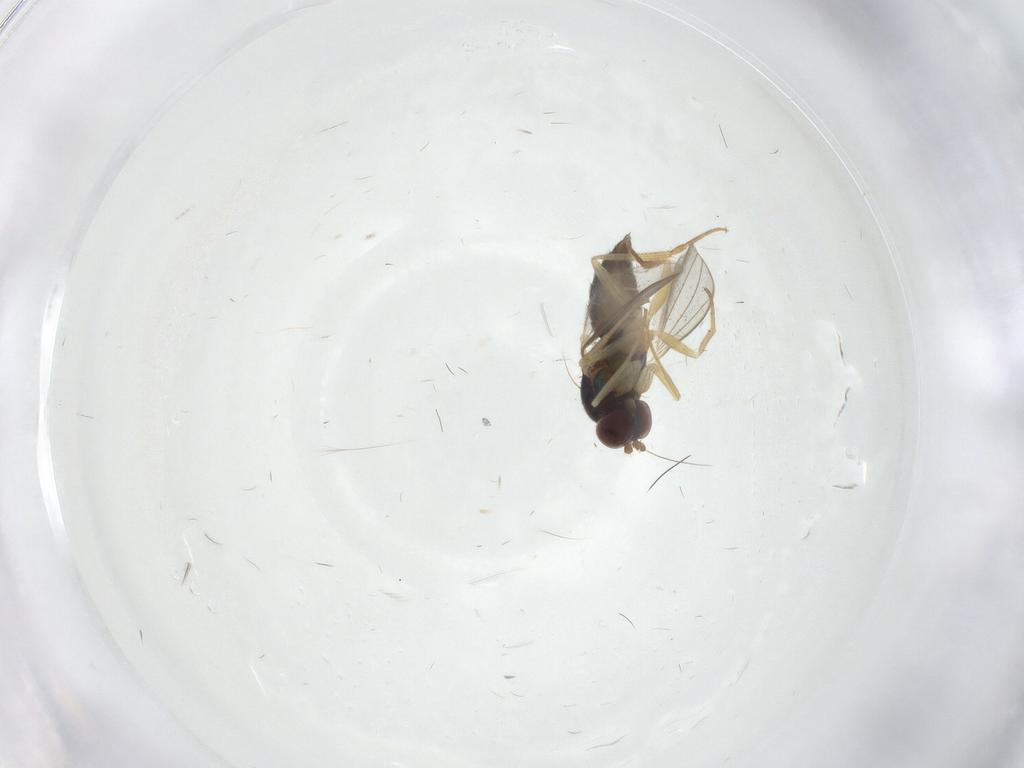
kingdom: Animalia
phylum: Arthropoda
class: Insecta
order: Diptera
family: Dolichopodidae
